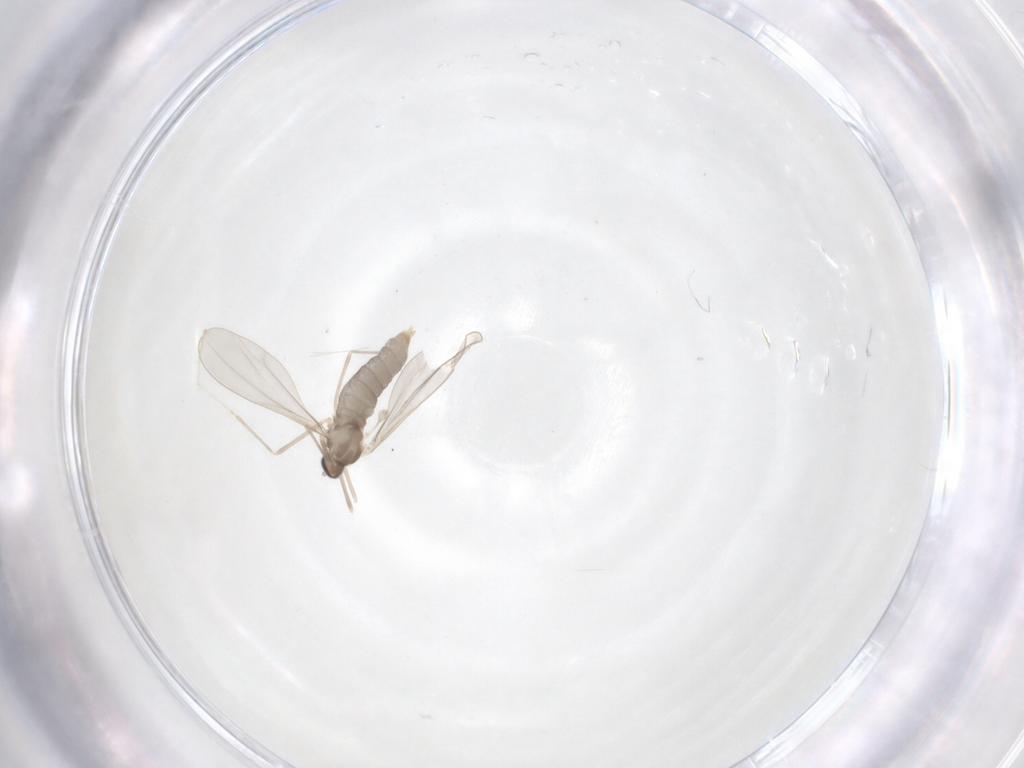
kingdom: Animalia
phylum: Arthropoda
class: Insecta
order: Diptera
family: Cecidomyiidae
